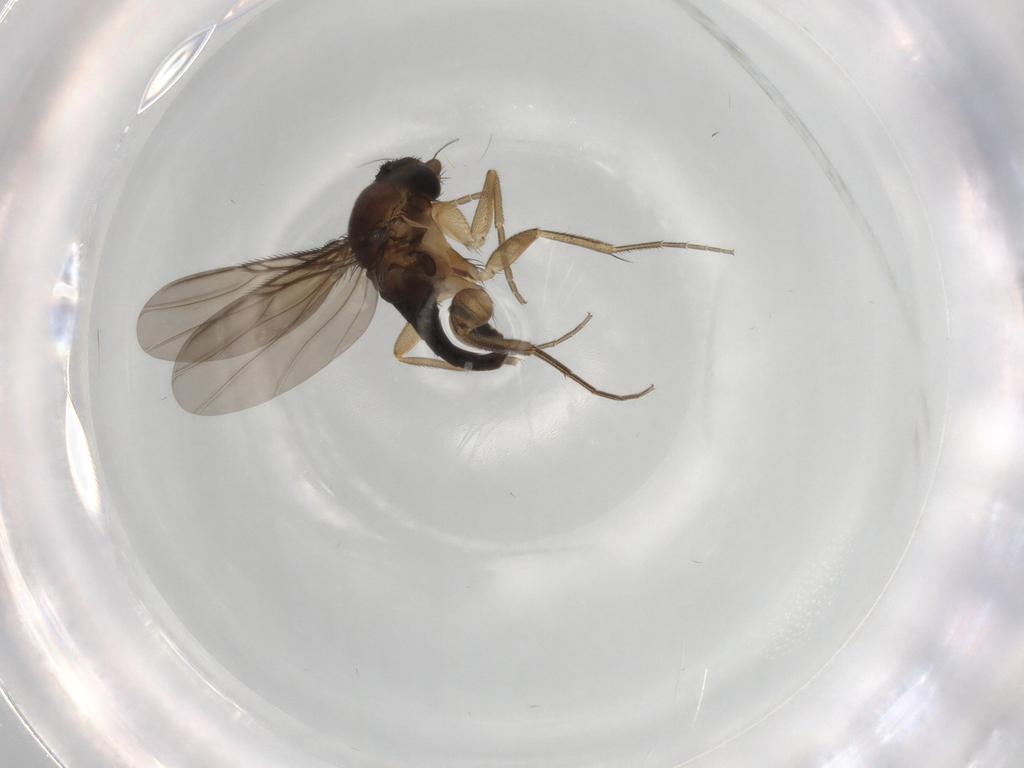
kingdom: Animalia
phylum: Arthropoda
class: Insecta
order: Diptera
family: Phoridae
